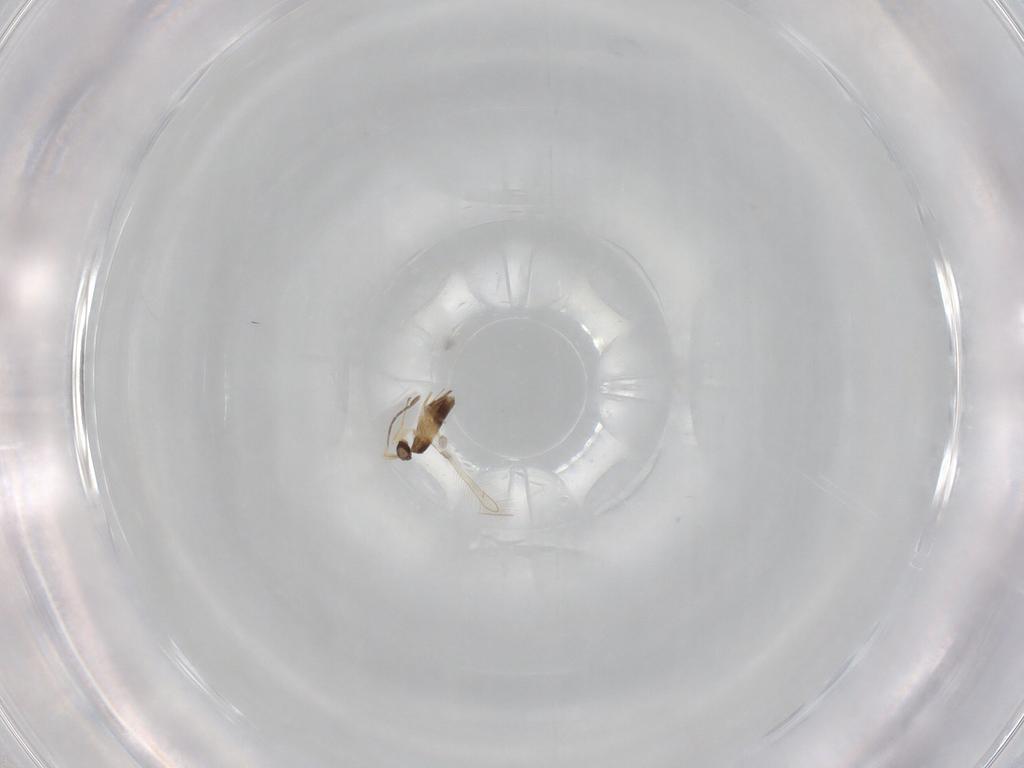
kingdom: Animalia
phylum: Arthropoda
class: Insecta
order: Hymenoptera
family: Mymaridae
